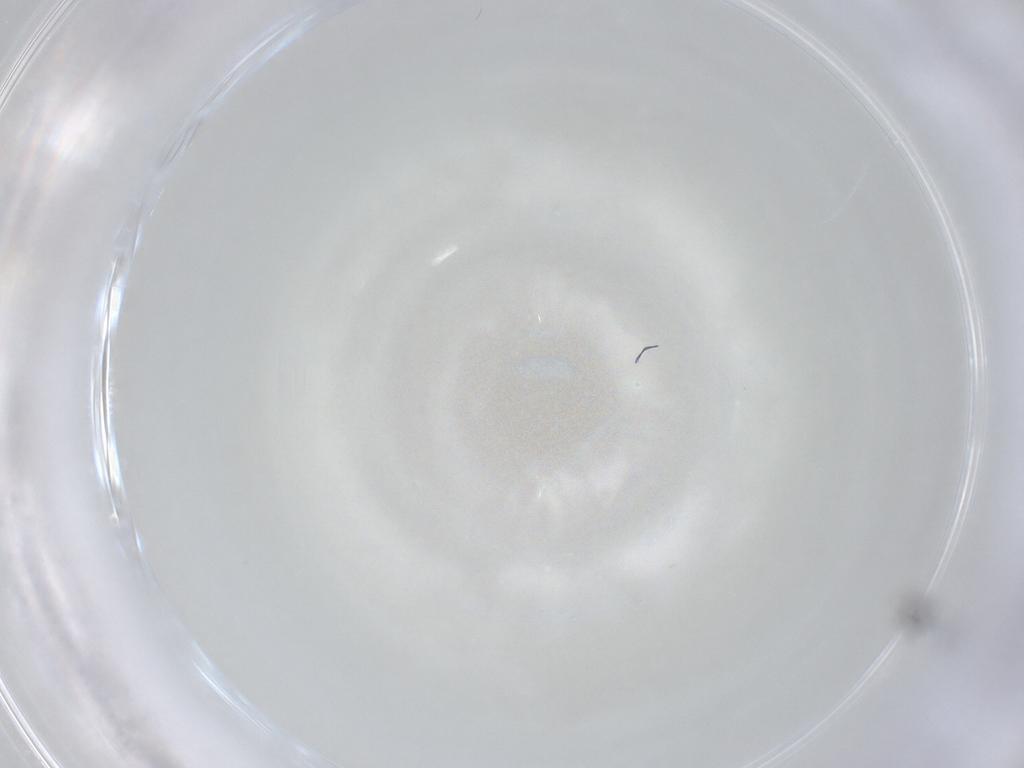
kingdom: Animalia
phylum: Arthropoda
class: Insecta
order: Hymenoptera
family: Mymaridae
